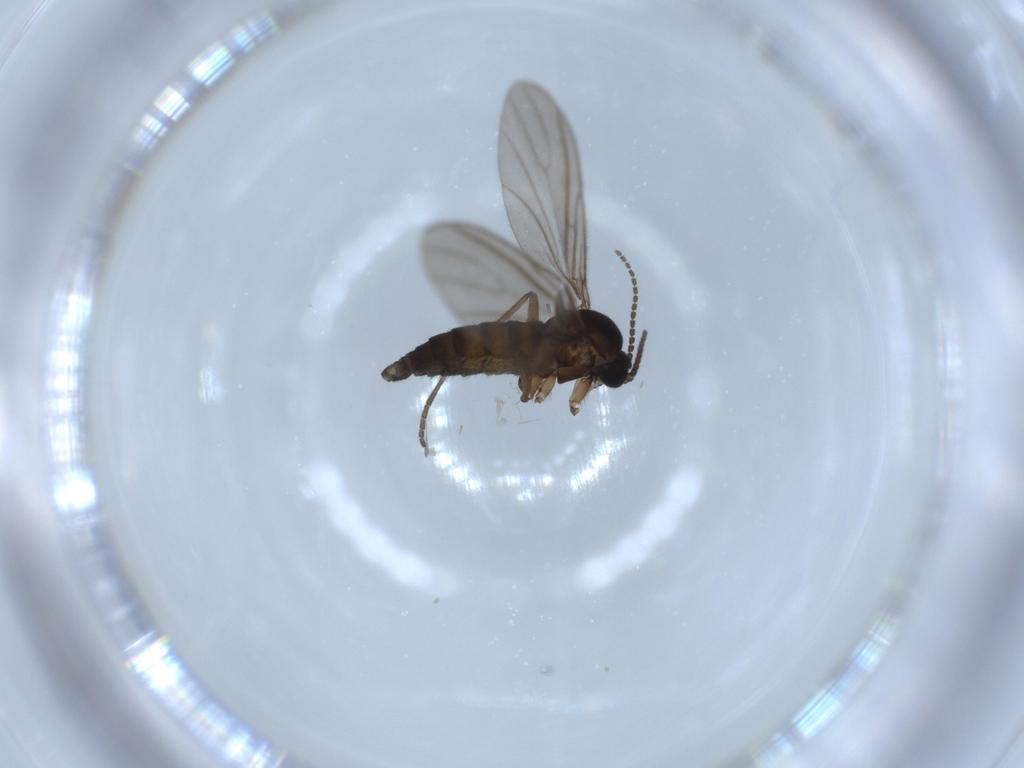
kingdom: Animalia
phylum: Arthropoda
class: Insecta
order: Diptera
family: Sciaridae
